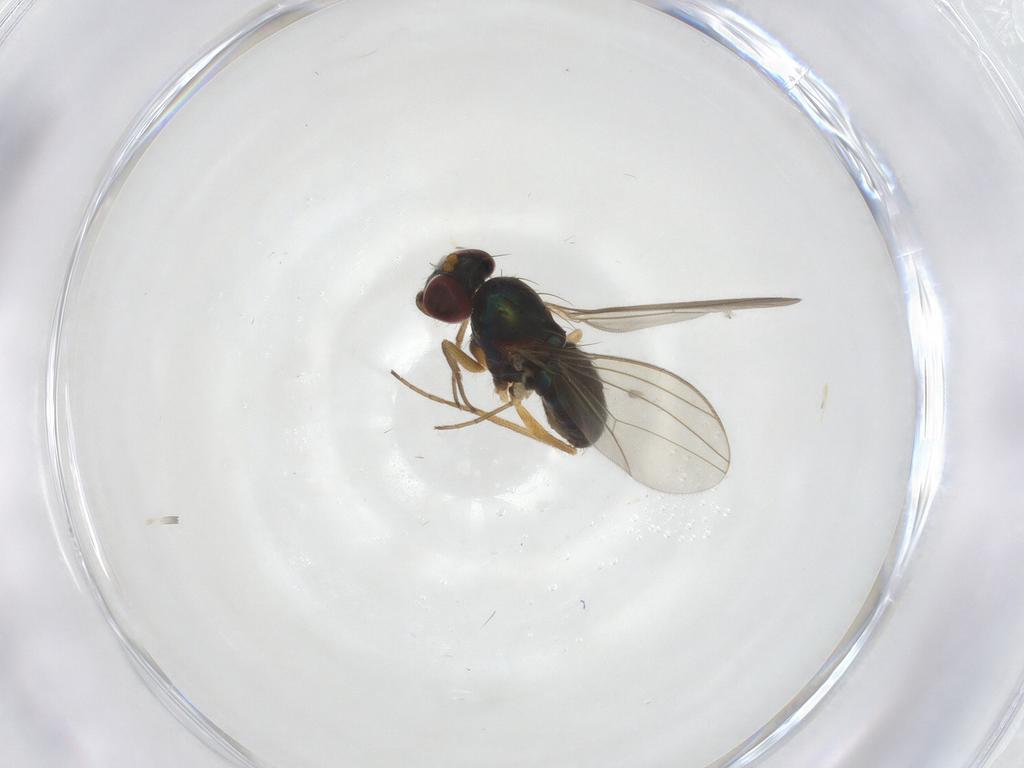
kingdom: Animalia
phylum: Arthropoda
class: Insecta
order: Diptera
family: Dolichopodidae
